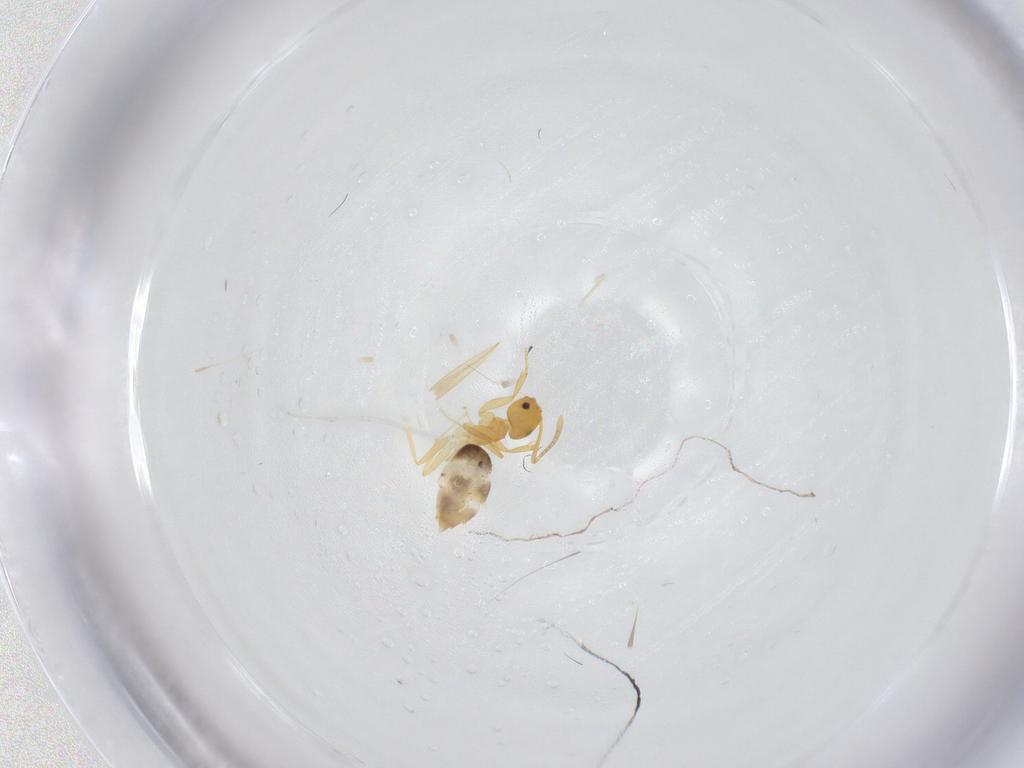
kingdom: Animalia
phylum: Arthropoda
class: Insecta
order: Hymenoptera
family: Formicidae
